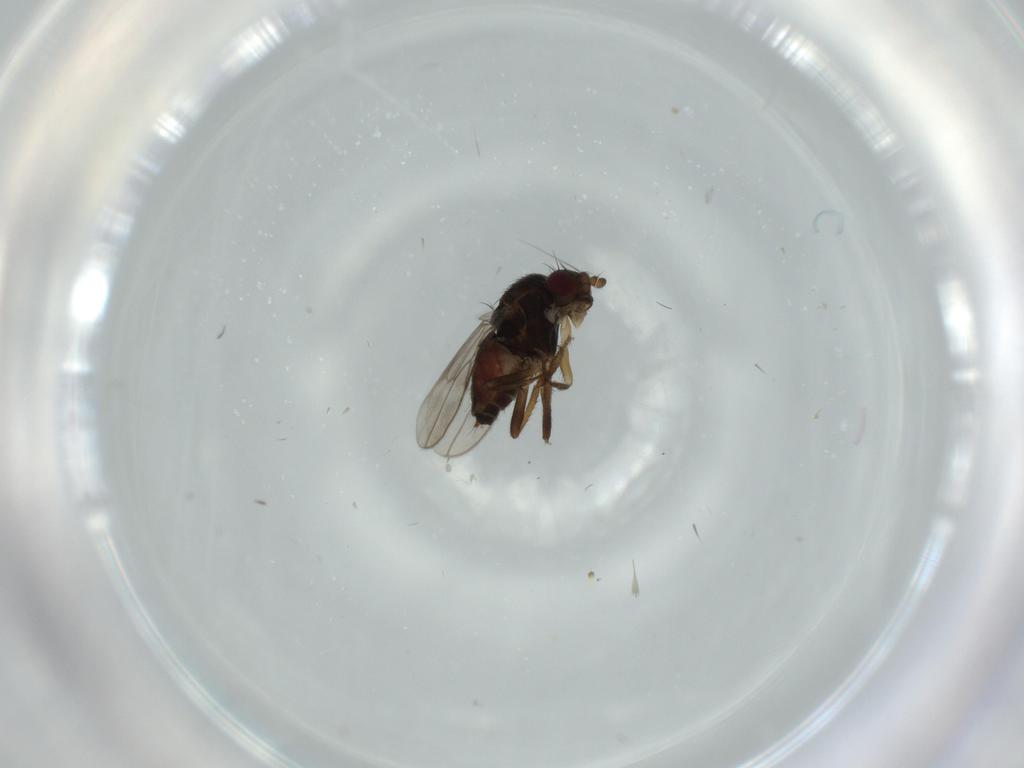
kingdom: Animalia
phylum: Arthropoda
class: Insecta
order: Diptera
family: Sphaeroceridae
